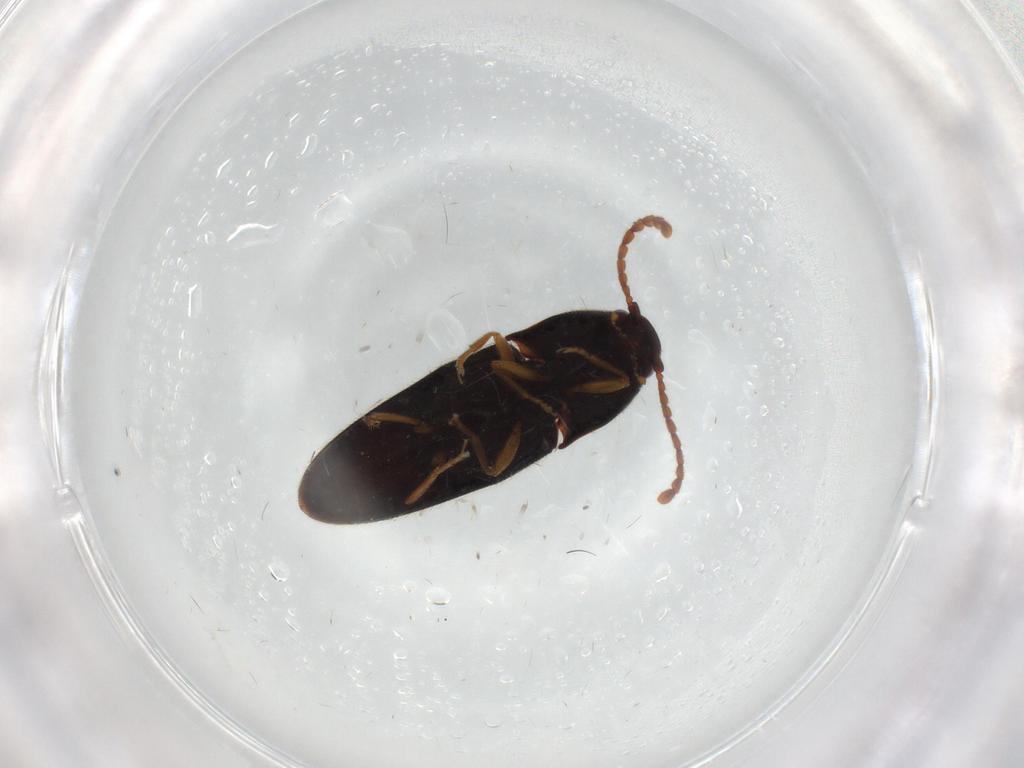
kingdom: Animalia
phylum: Arthropoda
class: Insecta
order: Coleoptera
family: Elateridae
